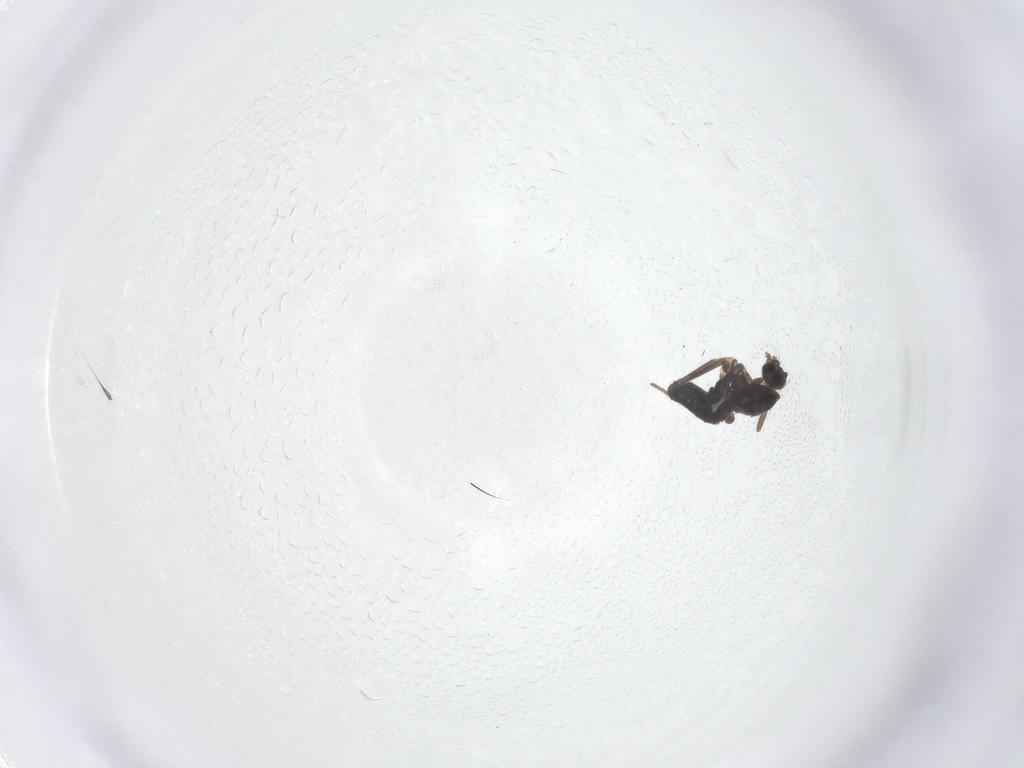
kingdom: Animalia
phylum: Arthropoda
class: Insecta
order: Diptera
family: Chironomidae
